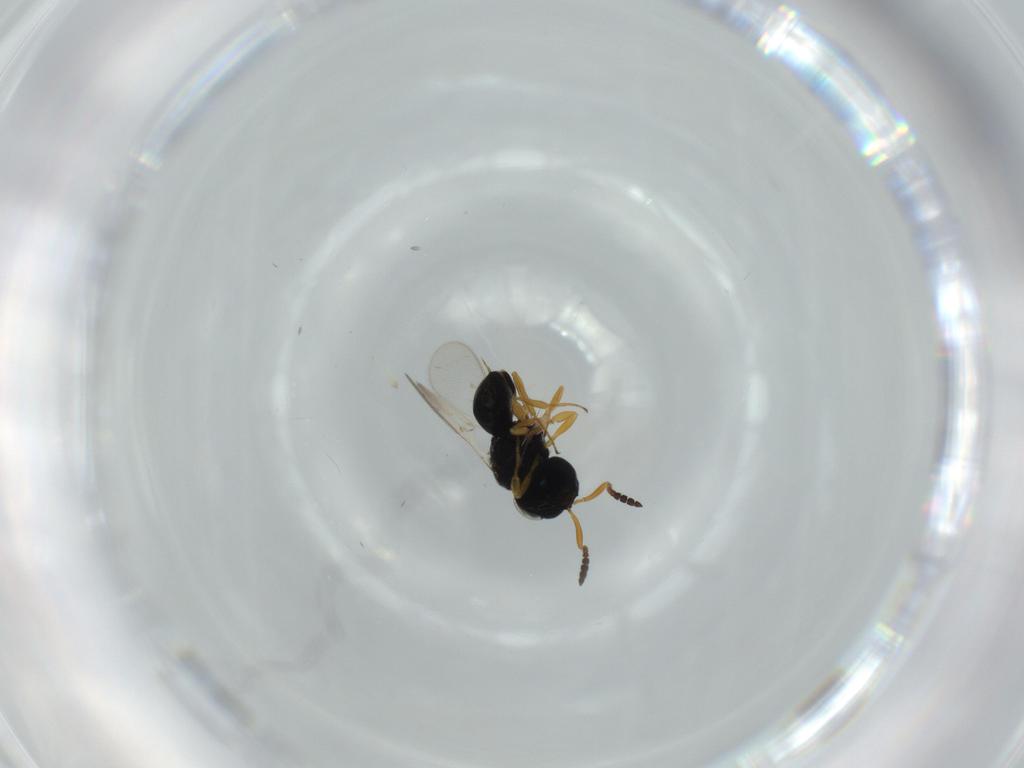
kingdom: Animalia
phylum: Arthropoda
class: Insecta
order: Hymenoptera
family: Scelionidae
